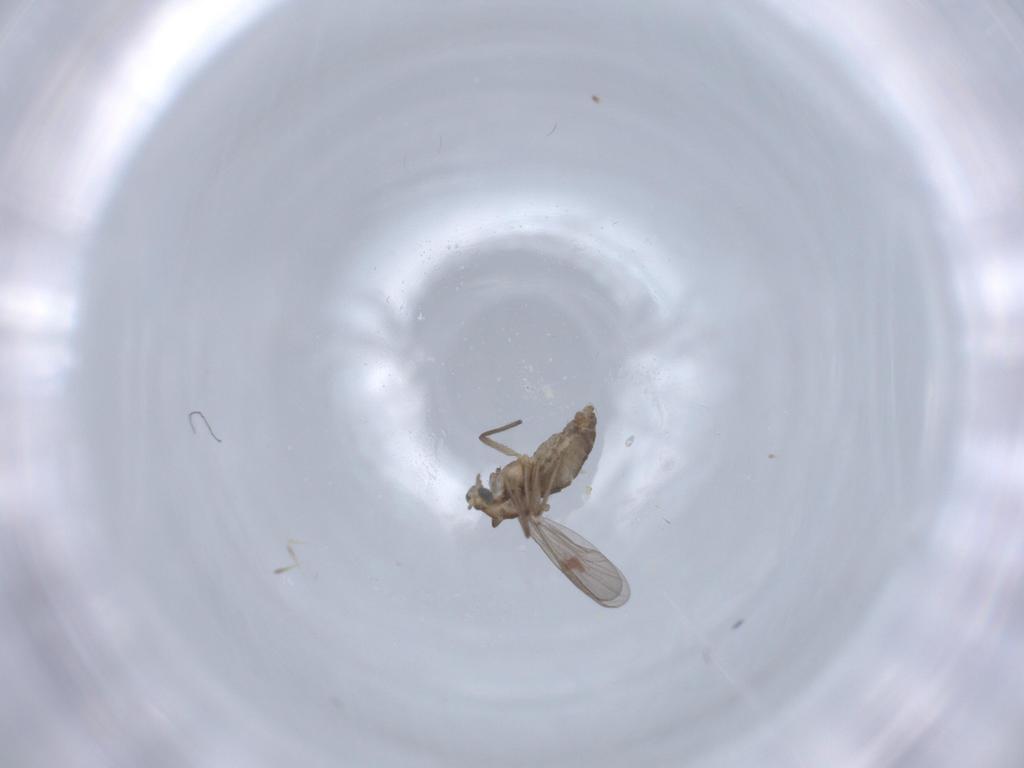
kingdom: Animalia
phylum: Arthropoda
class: Insecta
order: Diptera
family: Chironomidae
